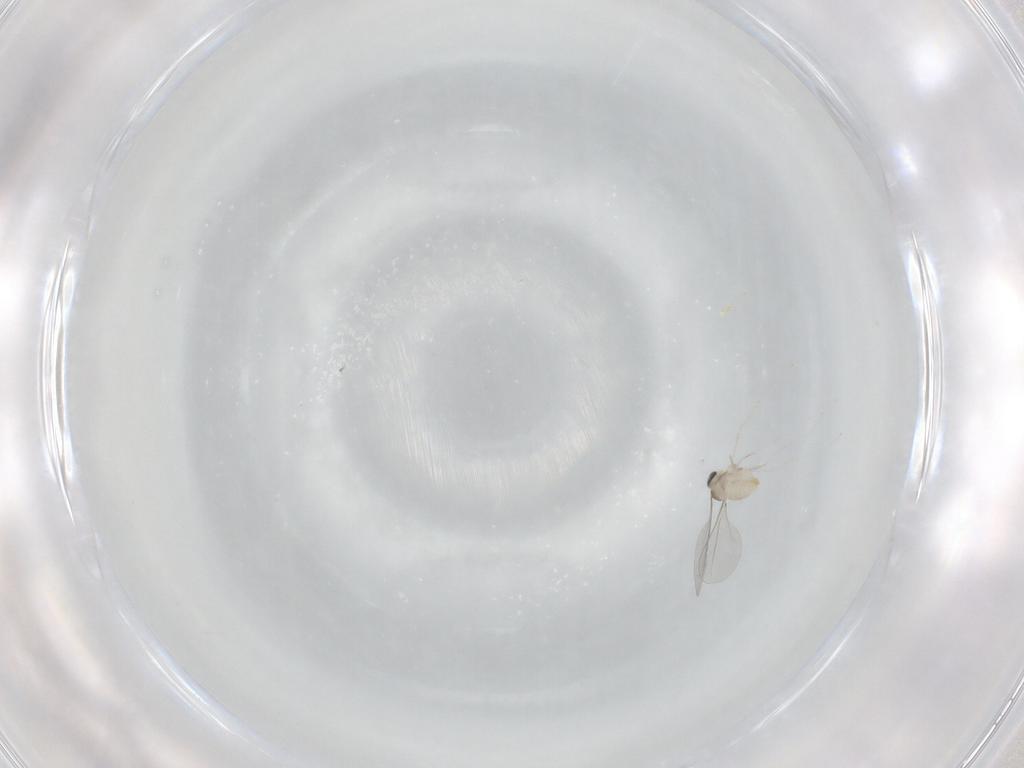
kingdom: Animalia
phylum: Arthropoda
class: Insecta
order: Diptera
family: Cecidomyiidae
